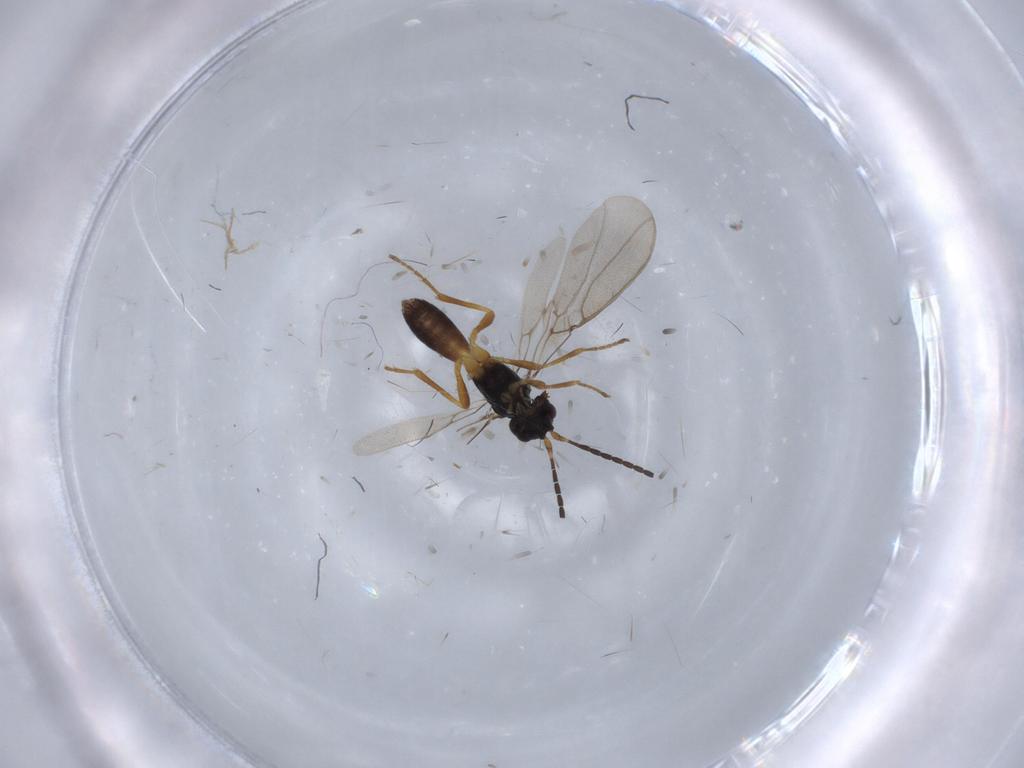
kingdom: Animalia
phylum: Arthropoda
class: Insecta
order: Hymenoptera
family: Braconidae
